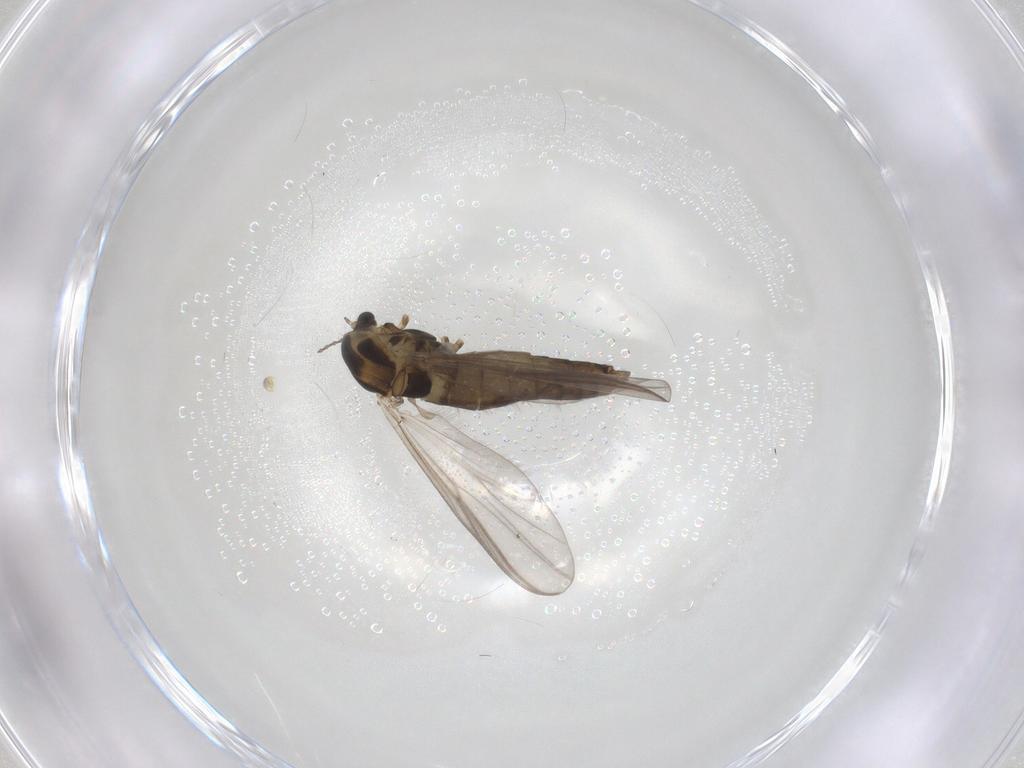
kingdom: Animalia
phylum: Arthropoda
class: Insecta
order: Diptera
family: Chironomidae
